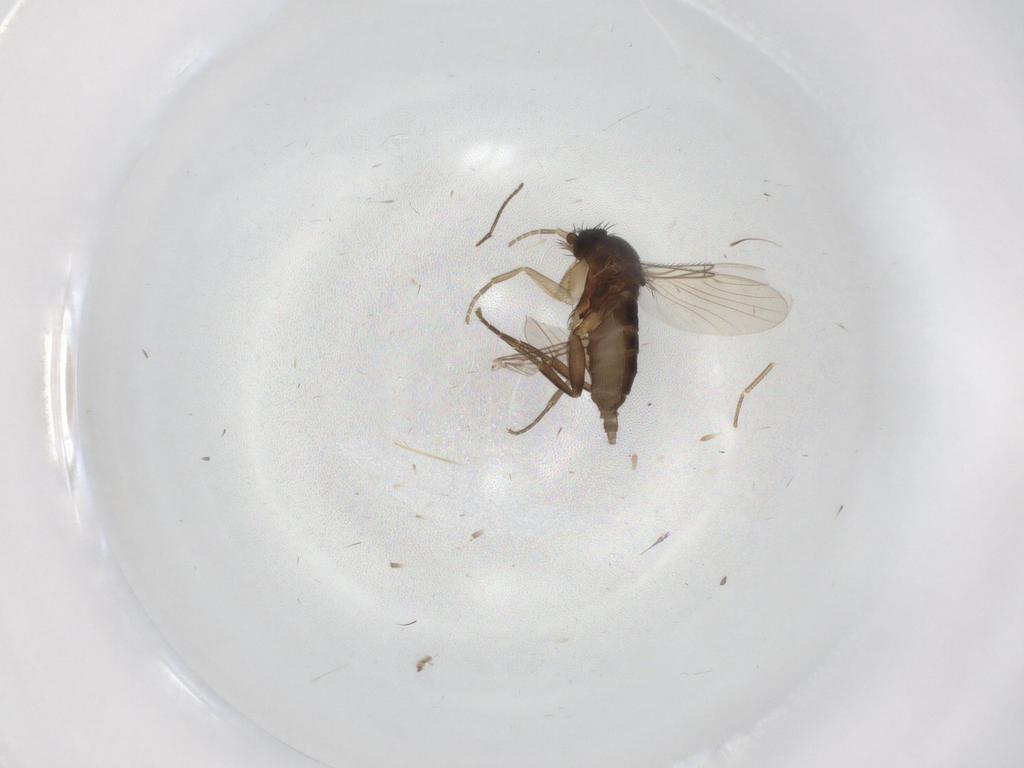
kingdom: Animalia
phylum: Arthropoda
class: Insecta
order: Diptera
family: Phoridae
